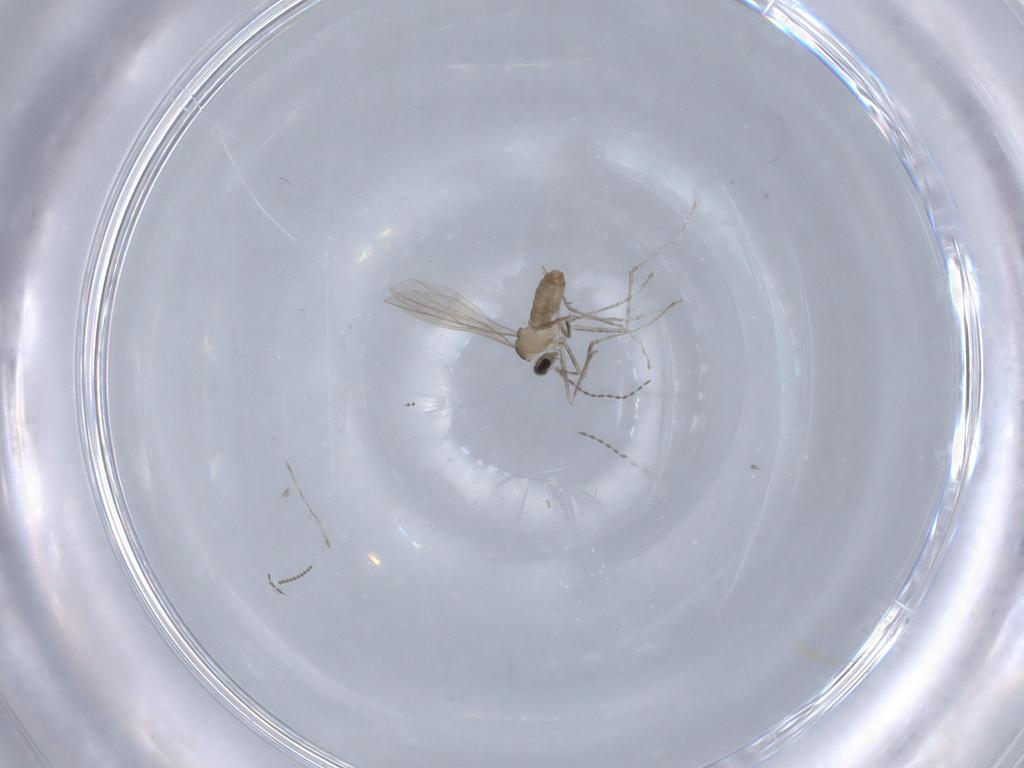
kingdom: Animalia
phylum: Arthropoda
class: Insecta
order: Diptera
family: Cecidomyiidae
